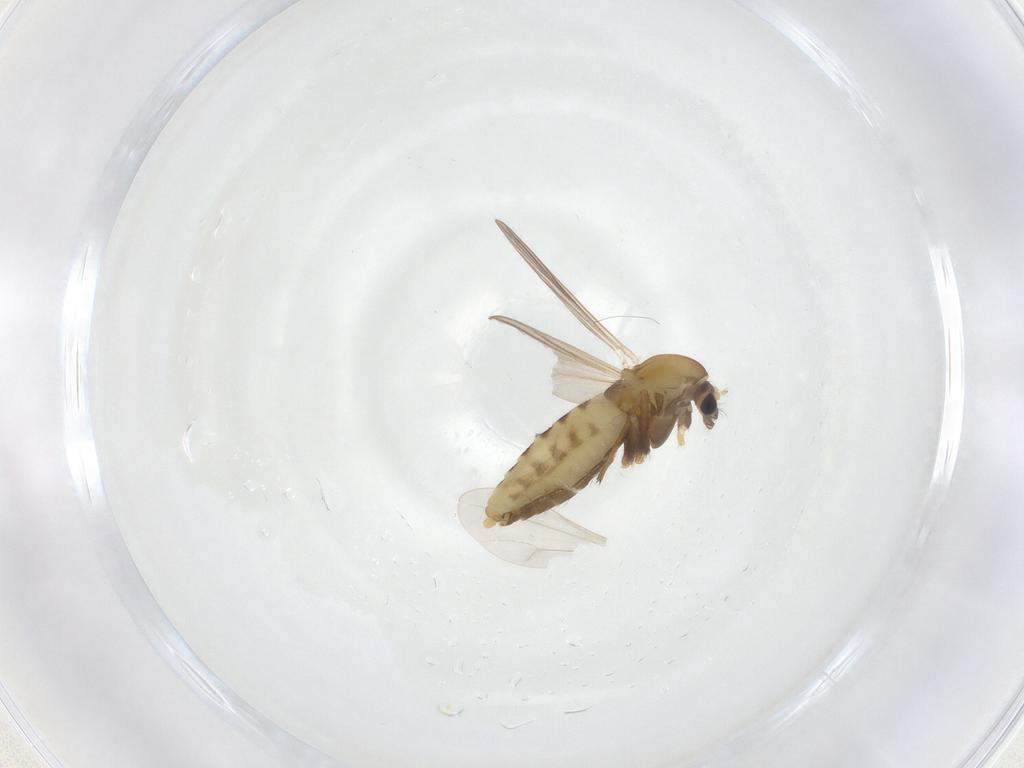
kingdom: Animalia
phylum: Arthropoda
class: Insecta
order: Diptera
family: Chironomidae
